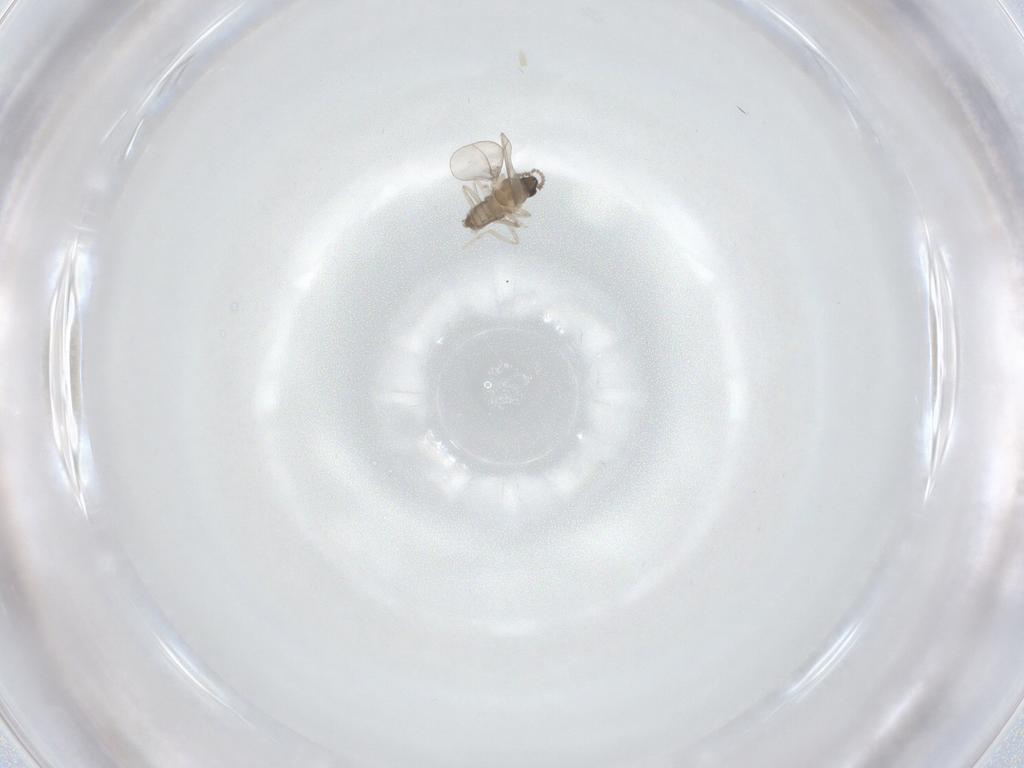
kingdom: Animalia
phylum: Arthropoda
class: Insecta
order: Diptera
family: Cecidomyiidae
